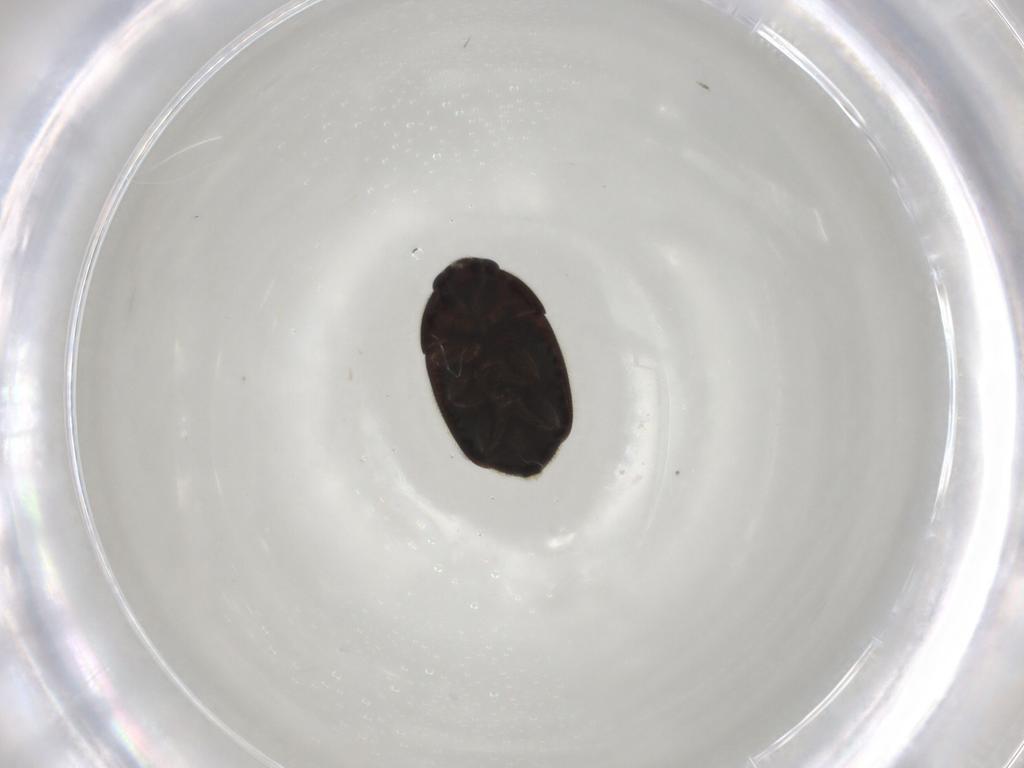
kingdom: Animalia
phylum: Arthropoda
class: Insecta
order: Coleoptera
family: Nitidulidae
